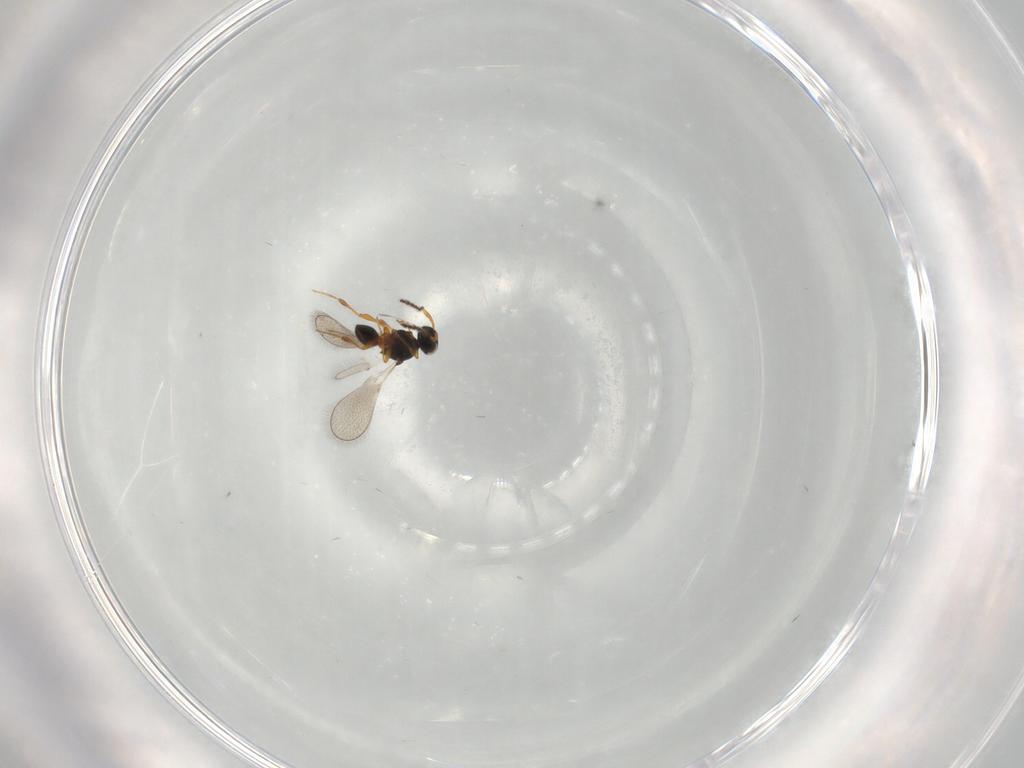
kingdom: Animalia
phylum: Arthropoda
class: Insecta
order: Hymenoptera
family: Platygastridae
